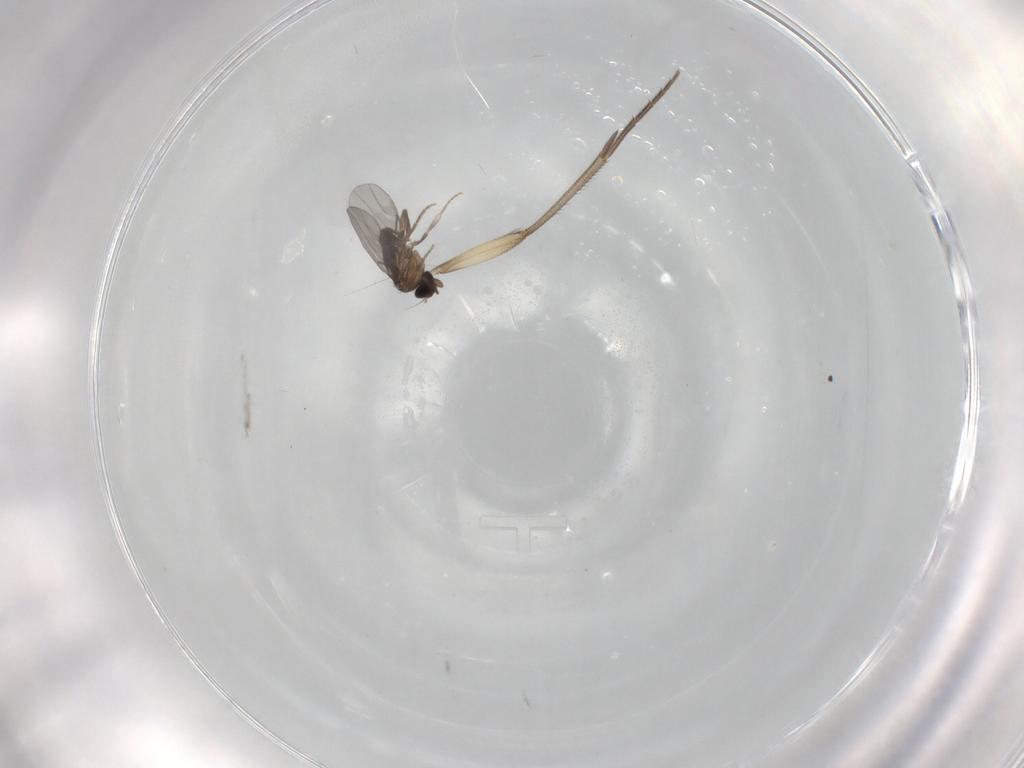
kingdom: Animalia
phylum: Arthropoda
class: Insecta
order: Diptera
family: Mycetophilidae
